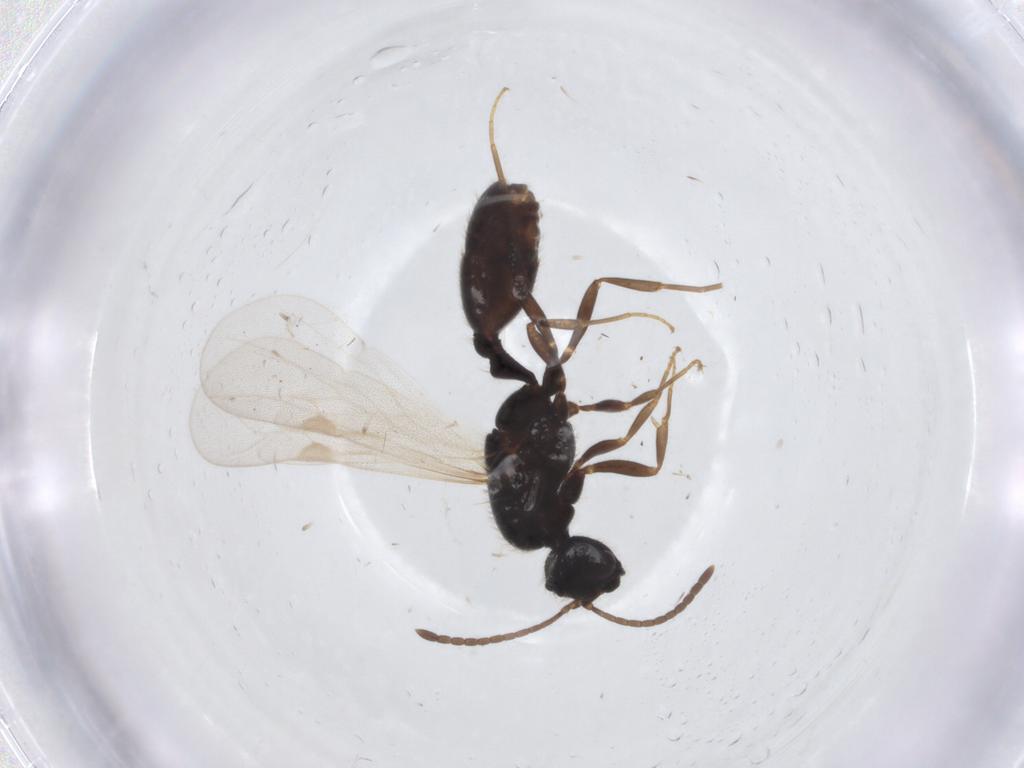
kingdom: Animalia
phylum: Arthropoda
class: Insecta
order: Hymenoptera
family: Formicidae
